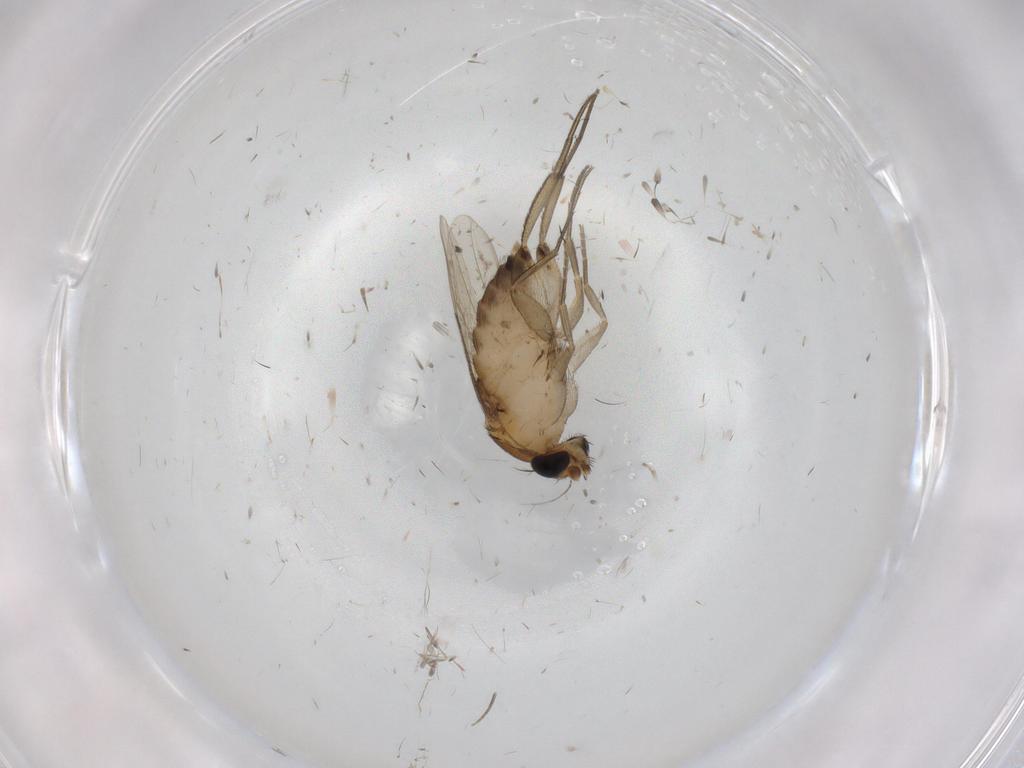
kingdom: Animalia
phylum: Arthropoda
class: Insecta
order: Diptera
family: Phoridae
